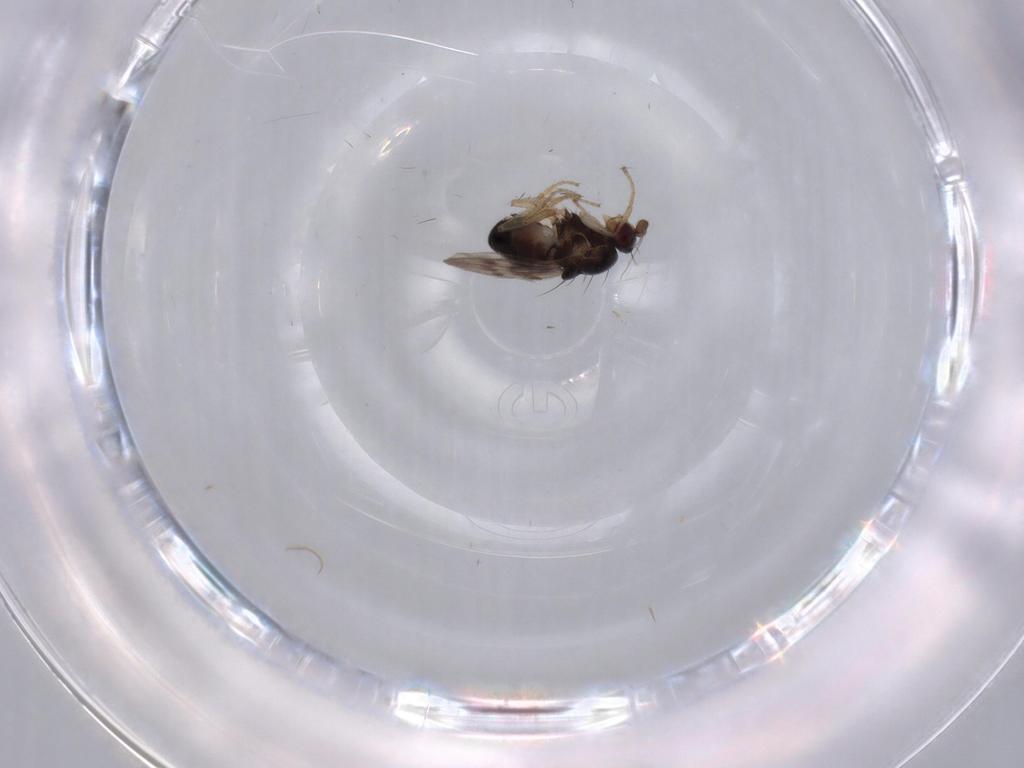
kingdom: Animalia
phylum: Arthropoda
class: Insecta
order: Diptera
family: Sphaeroceridae
